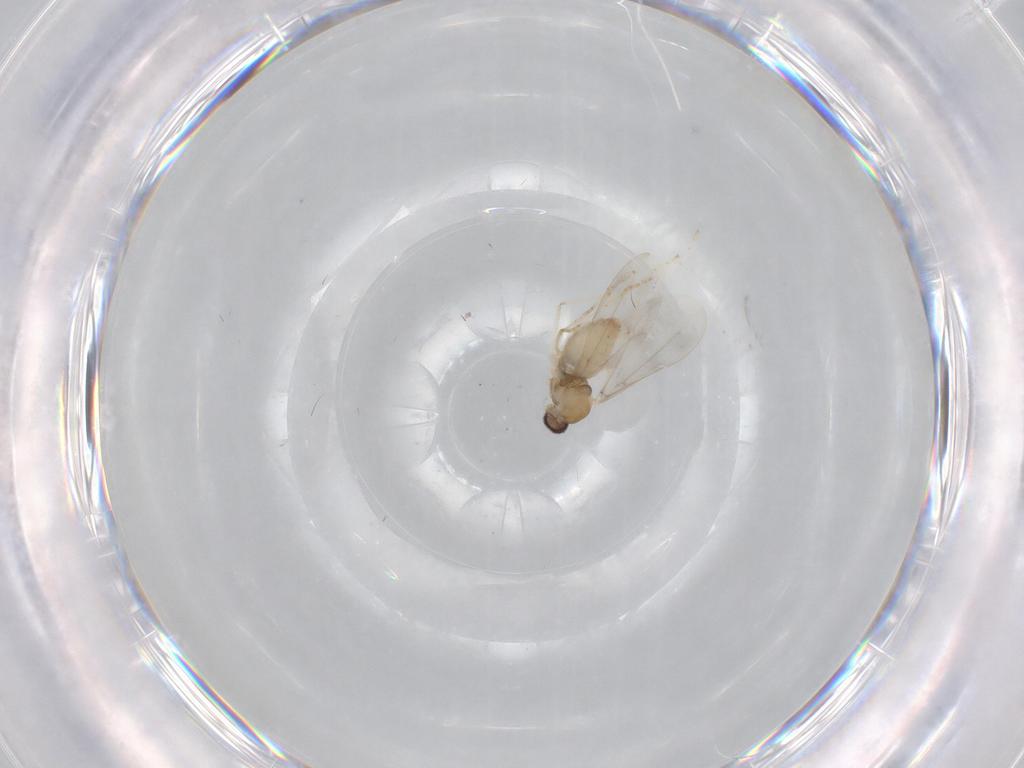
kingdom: Animalia
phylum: Arthropoda
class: Insecta
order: Diptera
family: Cecidomyiidae
